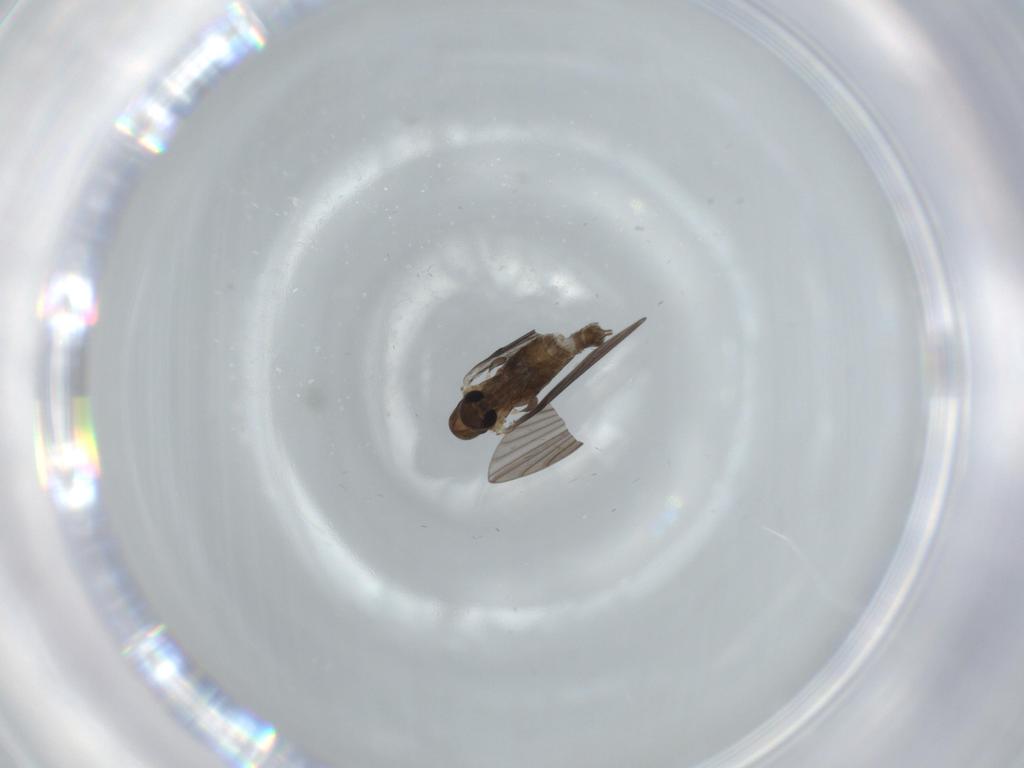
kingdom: Animalia
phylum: Arthropoda
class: Insecta
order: Diptera
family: Psychodidae
